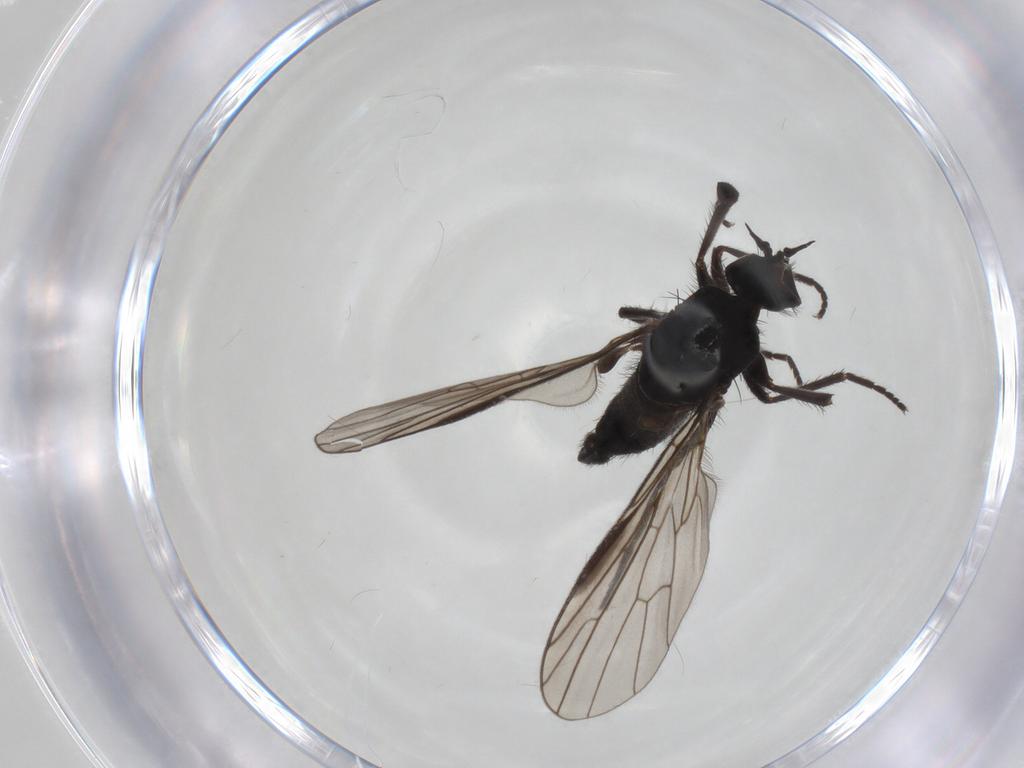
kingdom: Animalia
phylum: Arthropoda
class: Insecta
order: Diptera
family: Empididae
